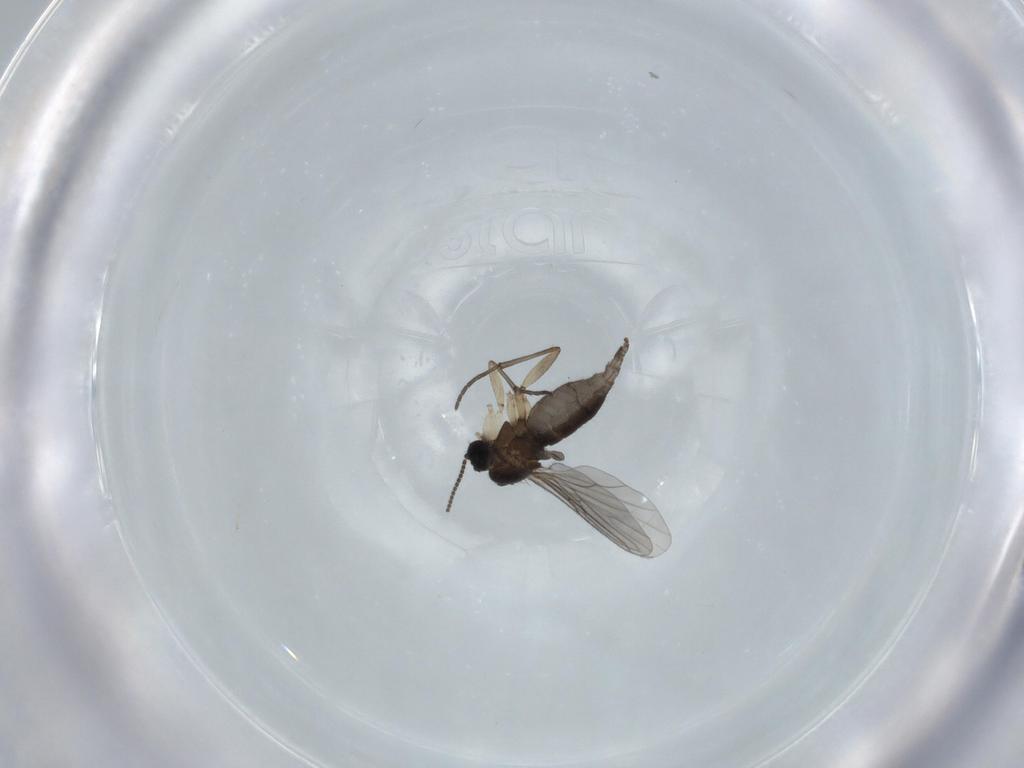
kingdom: Animalia
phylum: Arthropoda
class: Insecta
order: Diptera
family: Sciaridae
